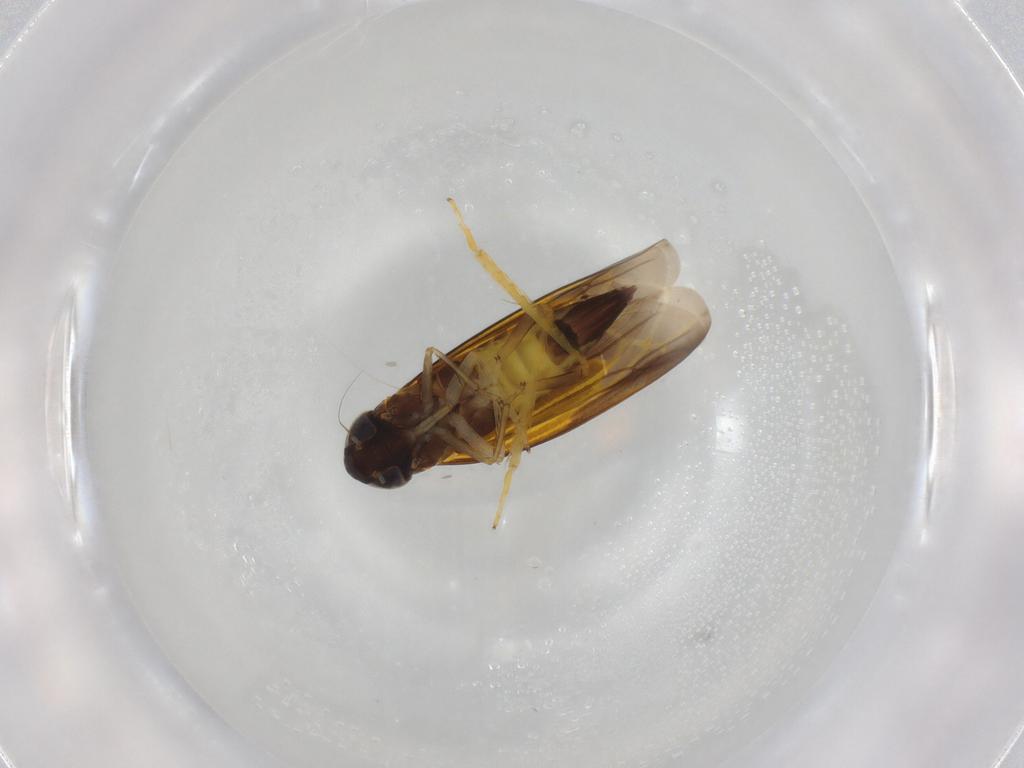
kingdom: Animalia
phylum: Arthropoda
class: Insecta
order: Hemiptera
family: Cicadellidae
